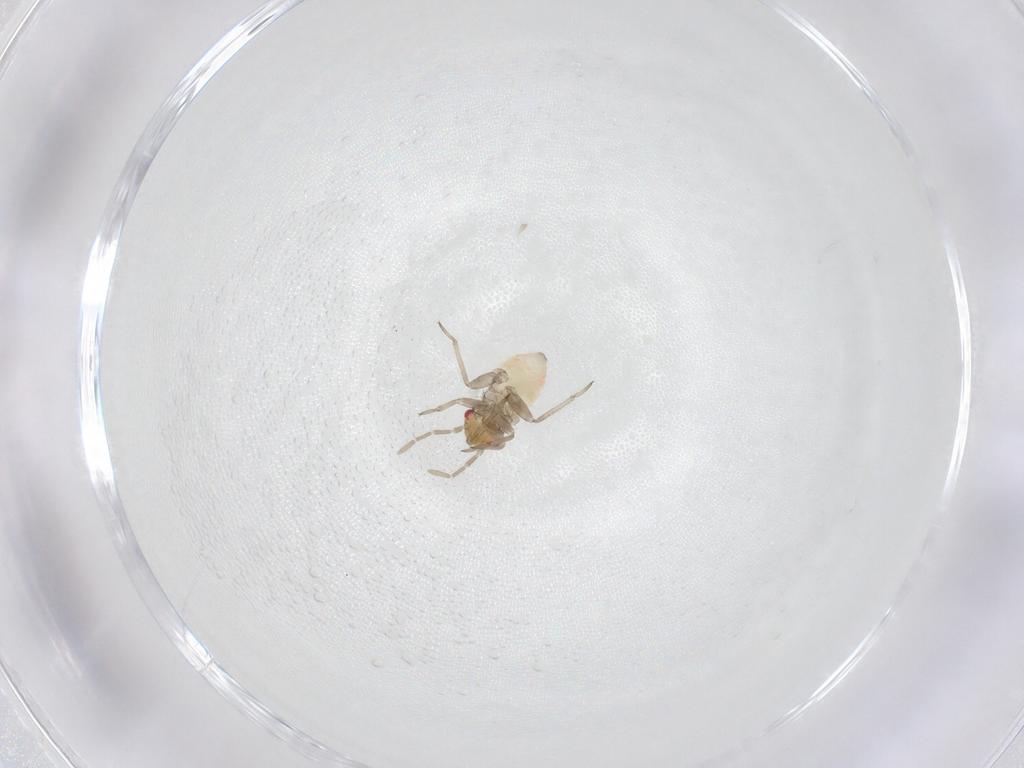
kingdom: Animalia
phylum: Arthropoda
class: Insecta
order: Hemiptera
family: Miridae
